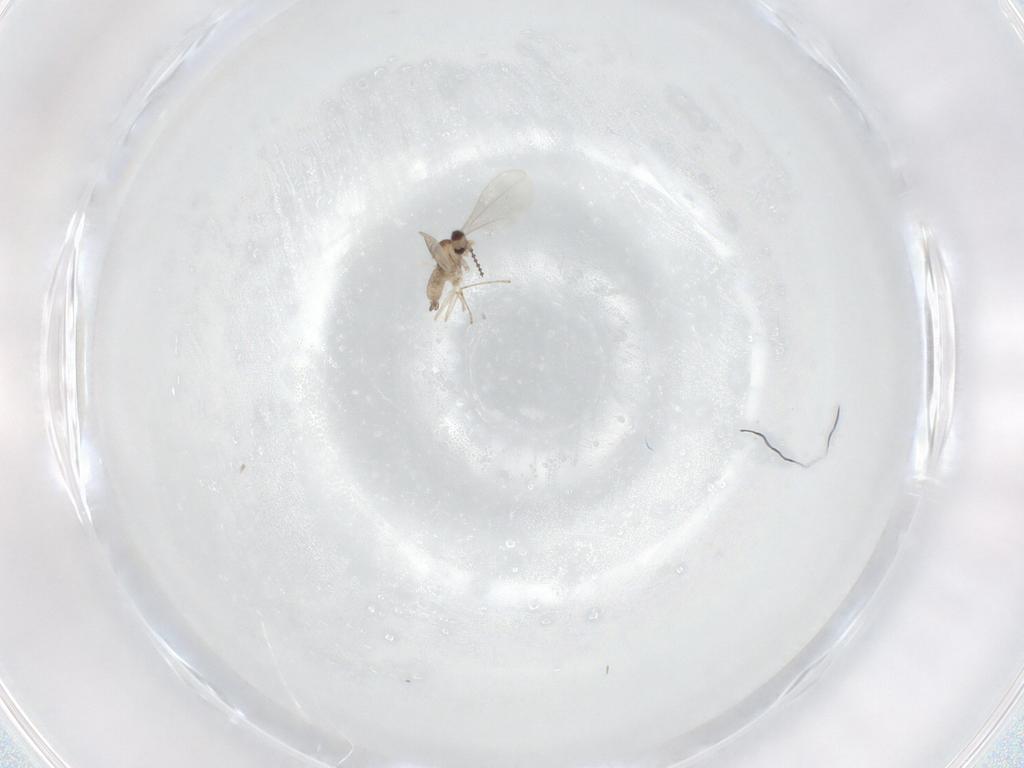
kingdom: Animalia
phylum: Arthropoda
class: Insecta
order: Diptera
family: Cecidomyiidae
